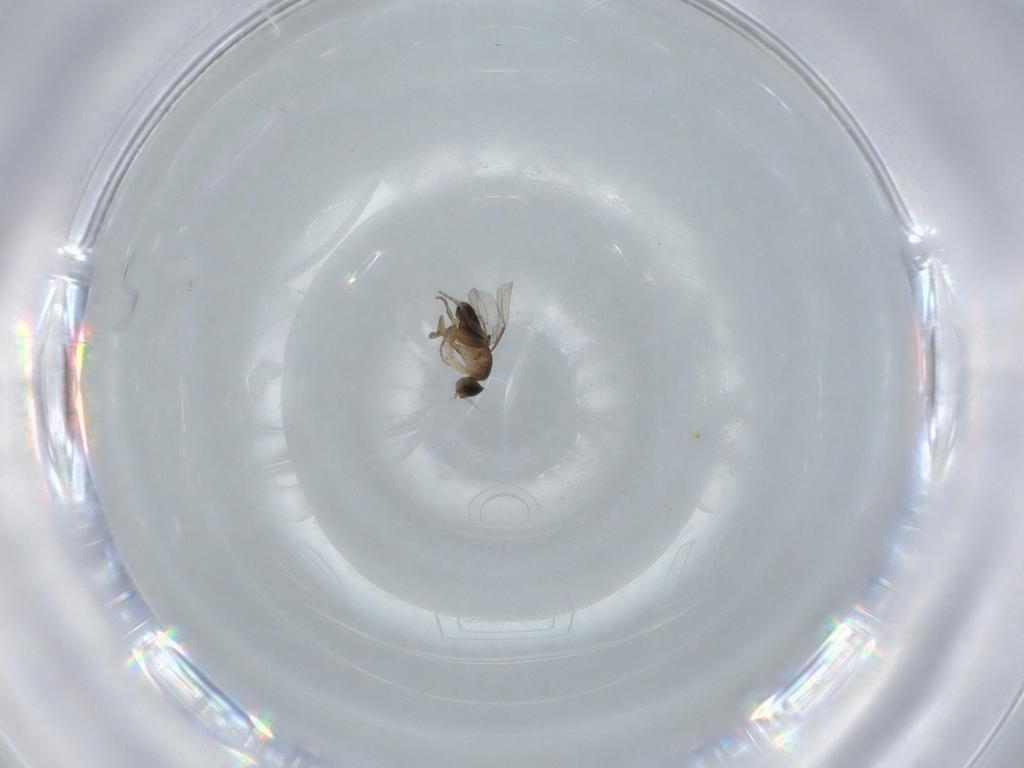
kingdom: Animalia
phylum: Arthropoda
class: Insecta
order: Diptera
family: Phoridae
